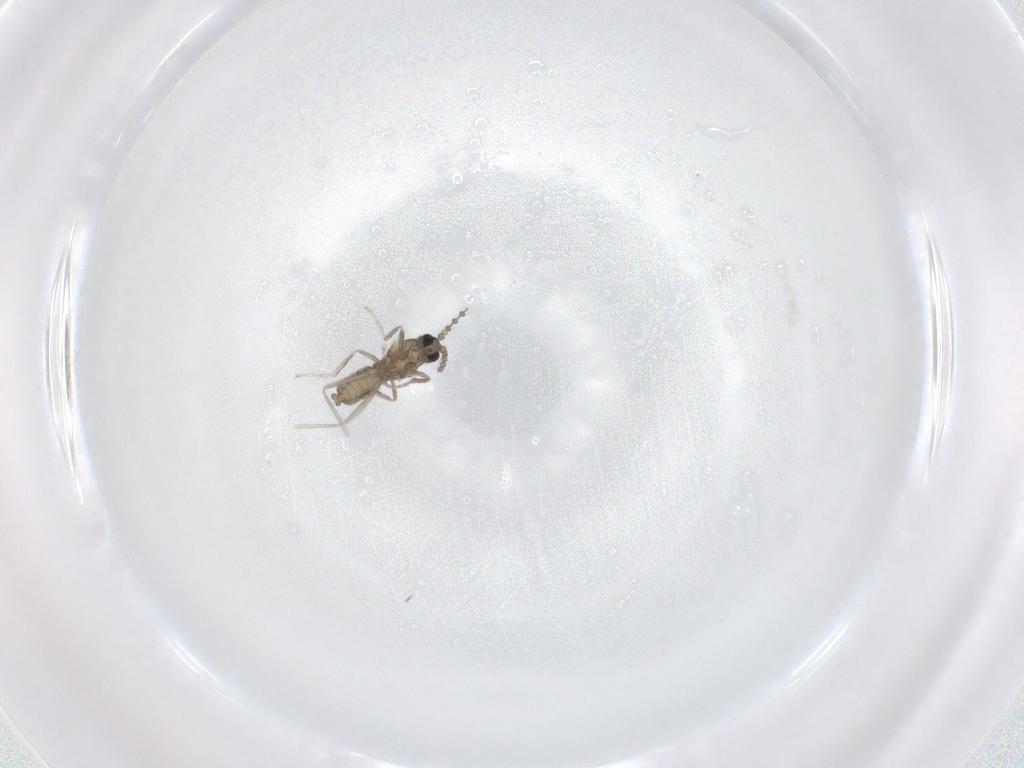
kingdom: Animalia
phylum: Arthropoda
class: Insecta
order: Diptera
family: Cecidomyiidae
